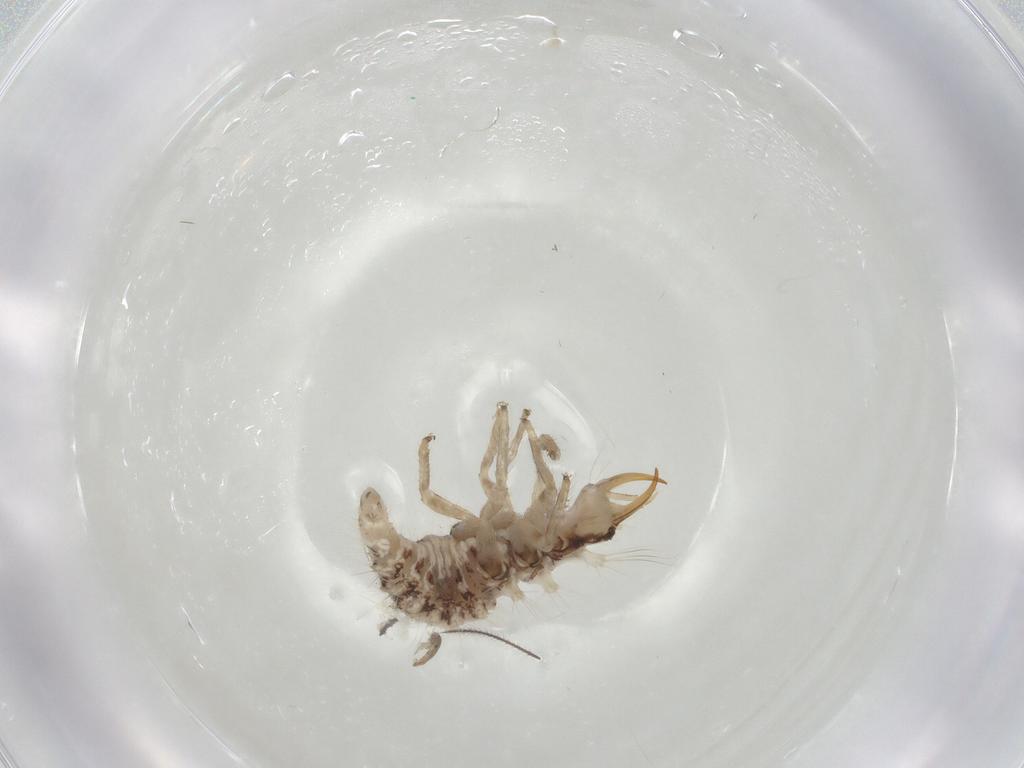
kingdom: Animalia
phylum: Arthropoda
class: Insecta
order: Neuroptera
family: Chrysopidae
